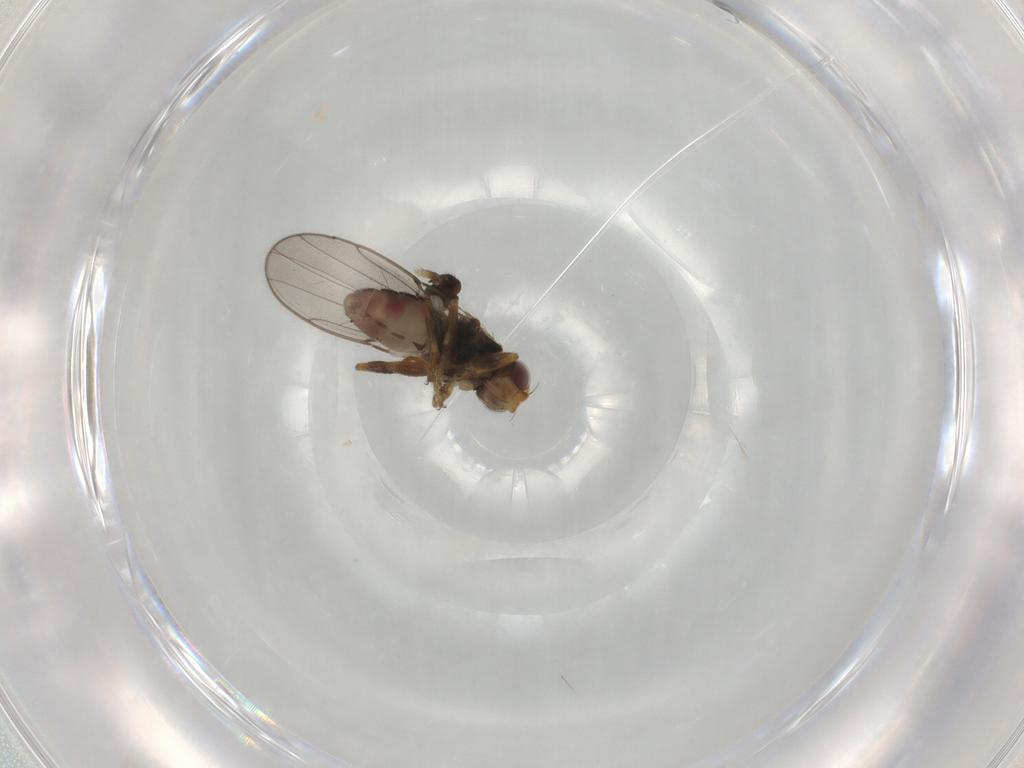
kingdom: Animalia
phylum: Arthropoda
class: Insecta
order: Diptera
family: Chloropidae
